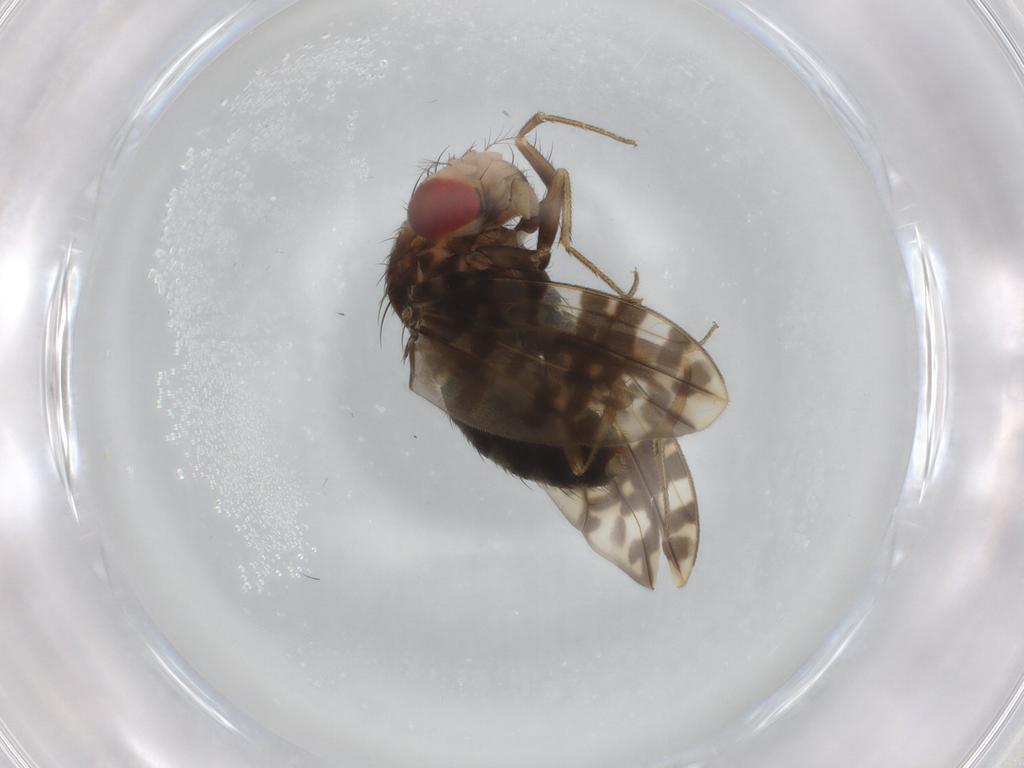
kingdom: Animalia
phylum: Arthropoda
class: Insecta
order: Diptera
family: Drosophilidae
